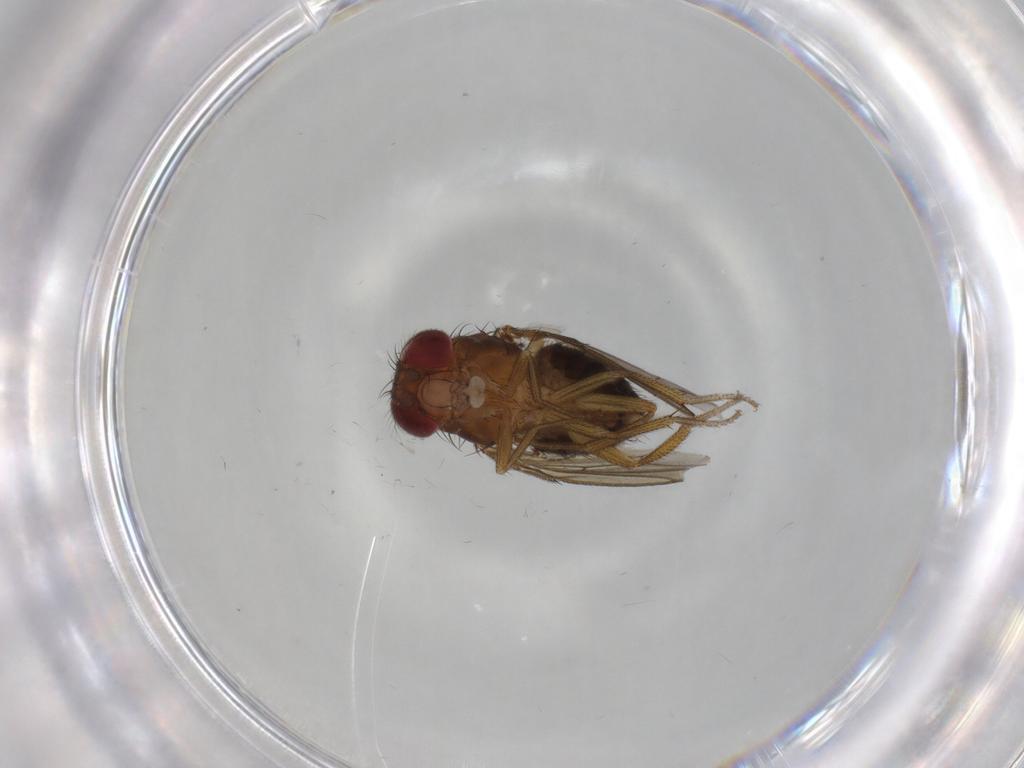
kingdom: Animalia
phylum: Arthropoda
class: Insecta
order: Diptera
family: Drosophilidae
